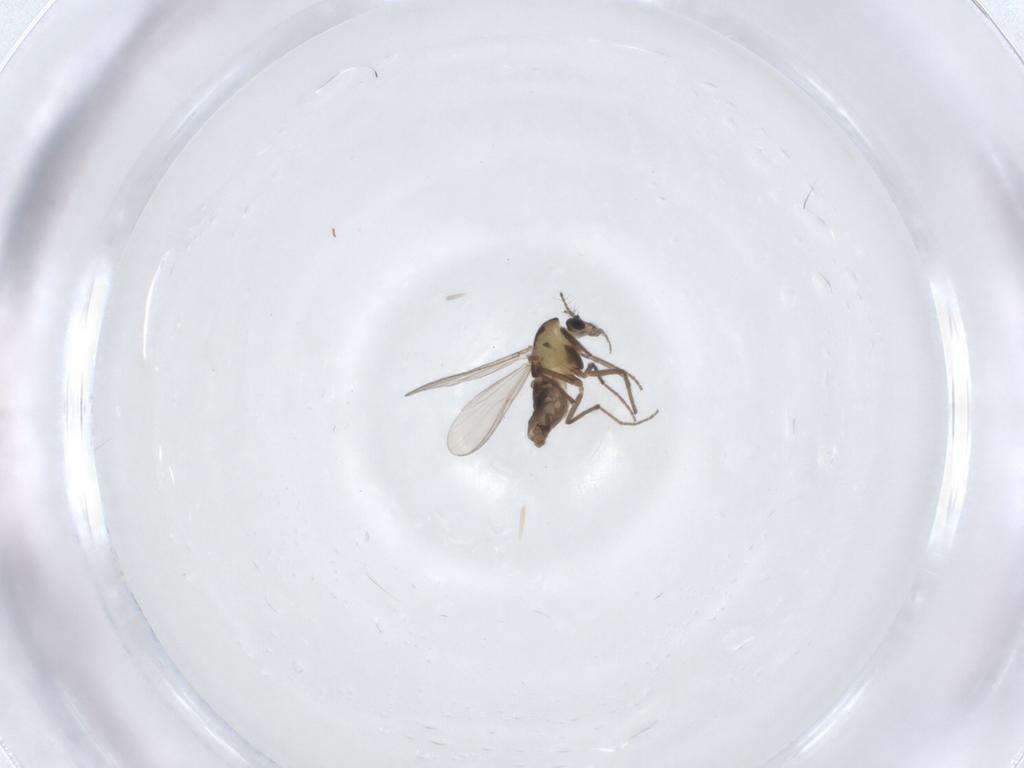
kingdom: Animalia
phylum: Arthropoda
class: Insecta
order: Diptera
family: Chironomidae
